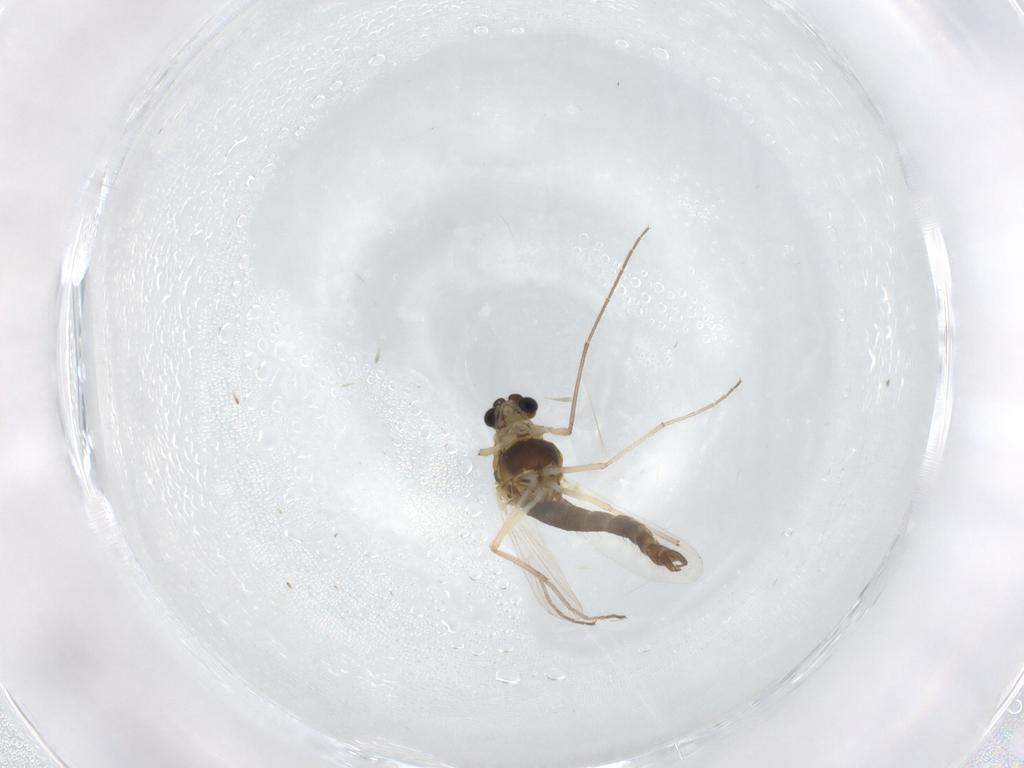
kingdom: Animalia
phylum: Arthropoda
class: Insecta
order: Diptera
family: Chironomidae
